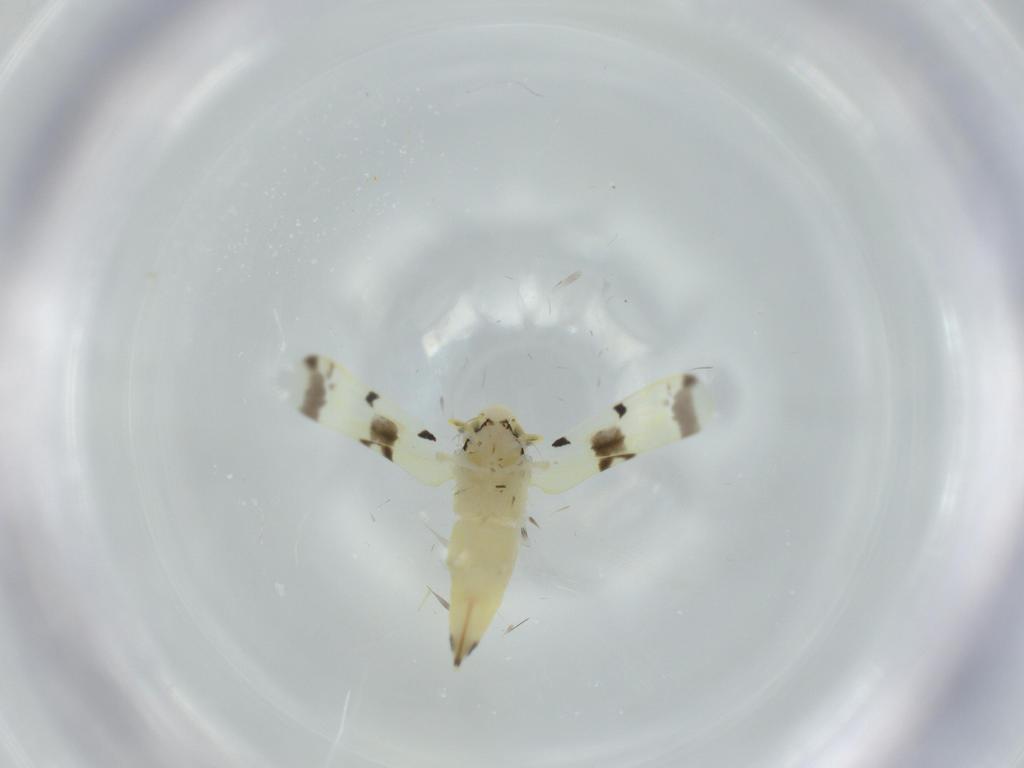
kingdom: Animalia
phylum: Arthropoda
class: Insecta
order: Hemiptera
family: Cicadellidae
